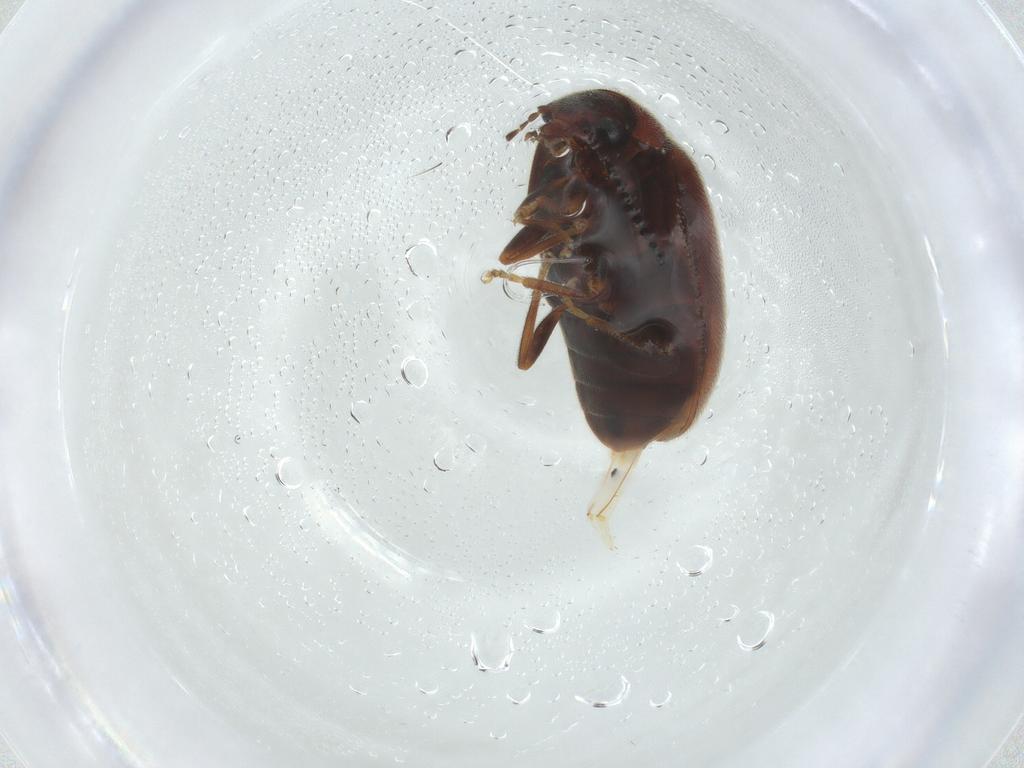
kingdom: Animalia
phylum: Arthropoda
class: Insecta
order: Coleoptera
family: Scirtidae
